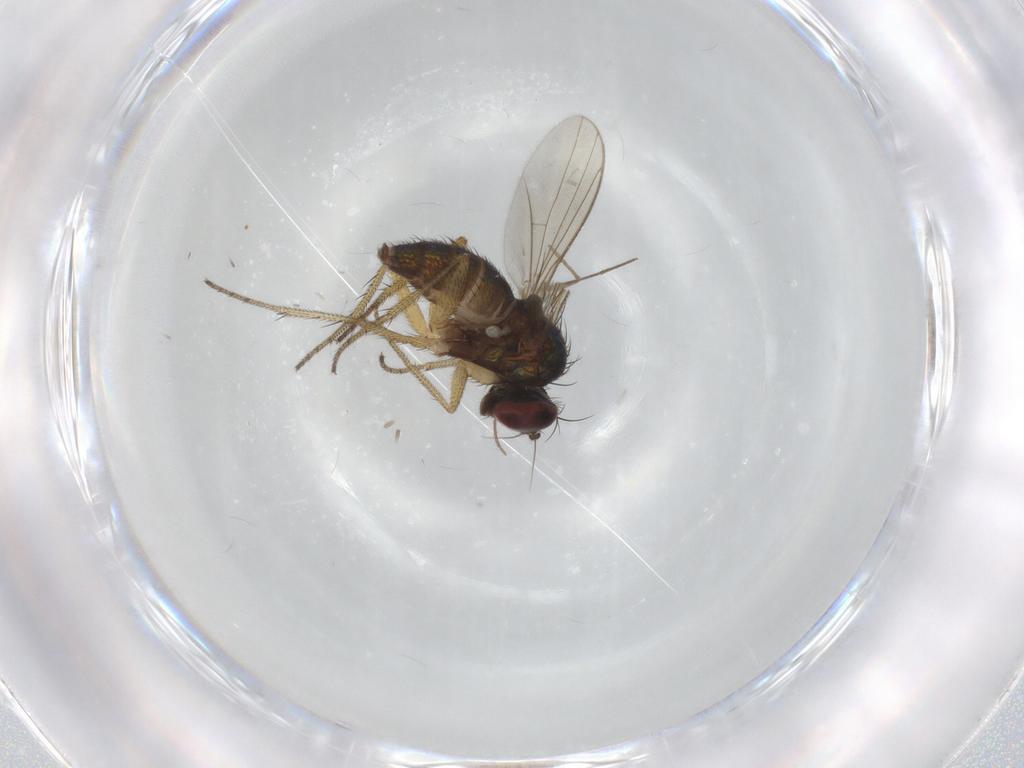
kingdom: Animalia
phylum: Arthropoda
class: Insecta
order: Diptera
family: Chironomidae
